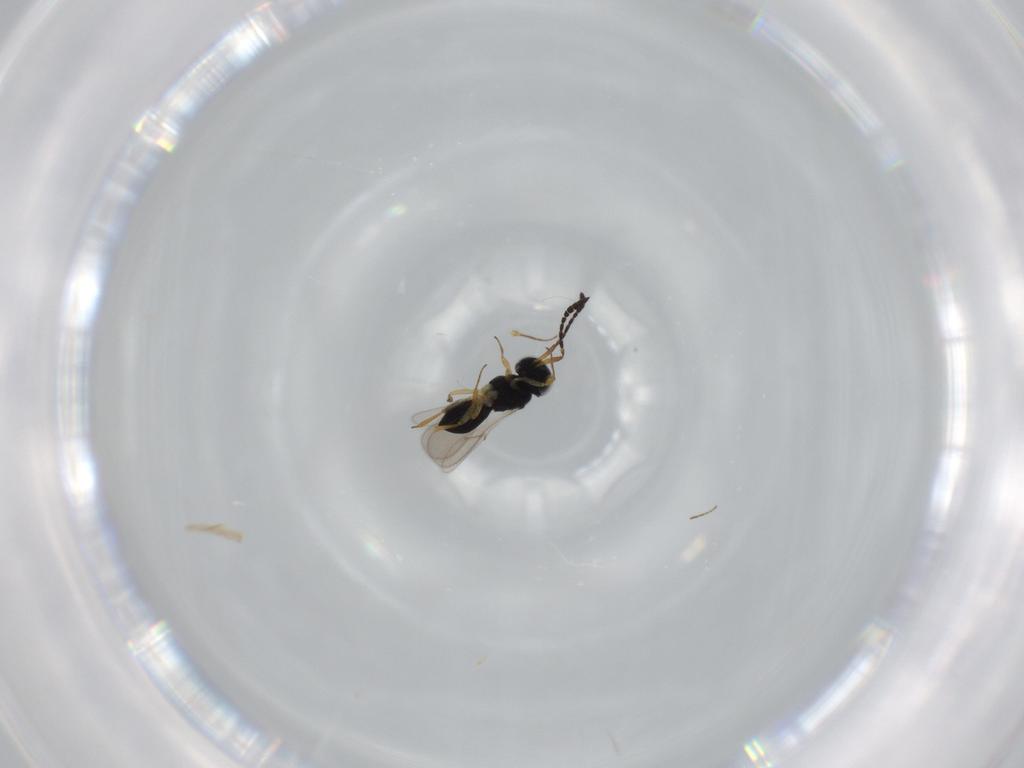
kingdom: Animalia
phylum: Arthropoda
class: Insecta
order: Hymenoptera
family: Scelionidae
